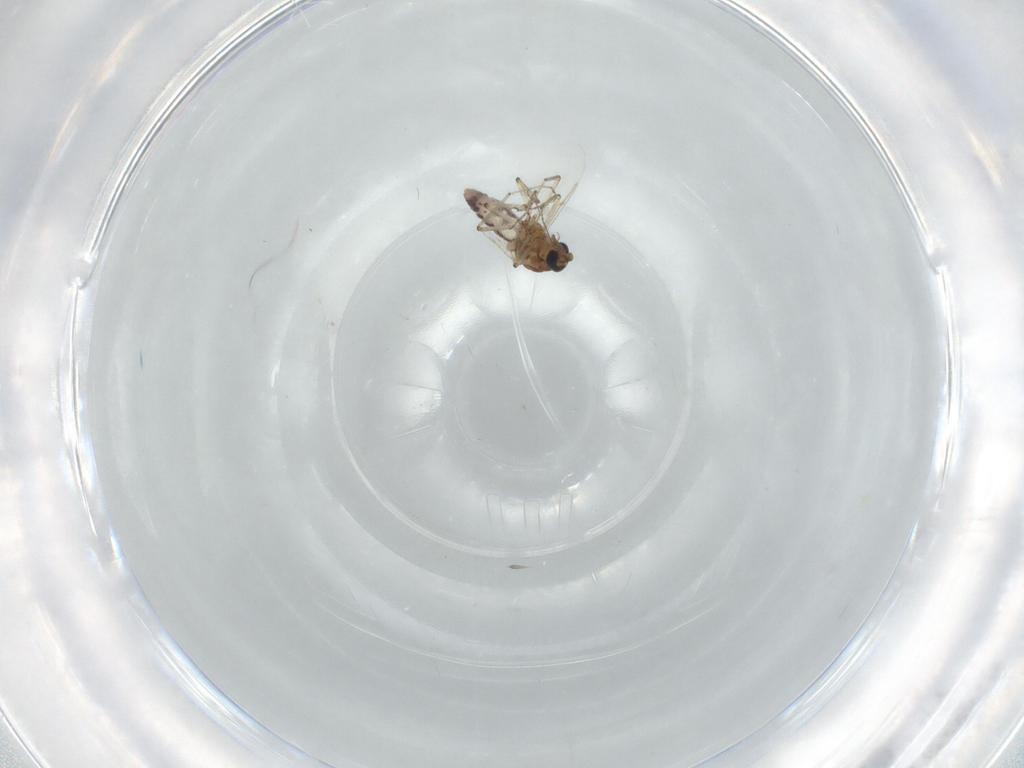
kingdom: Animalia
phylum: Arthropoda
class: Insecta
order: Diptera
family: Ceratopogonidae
